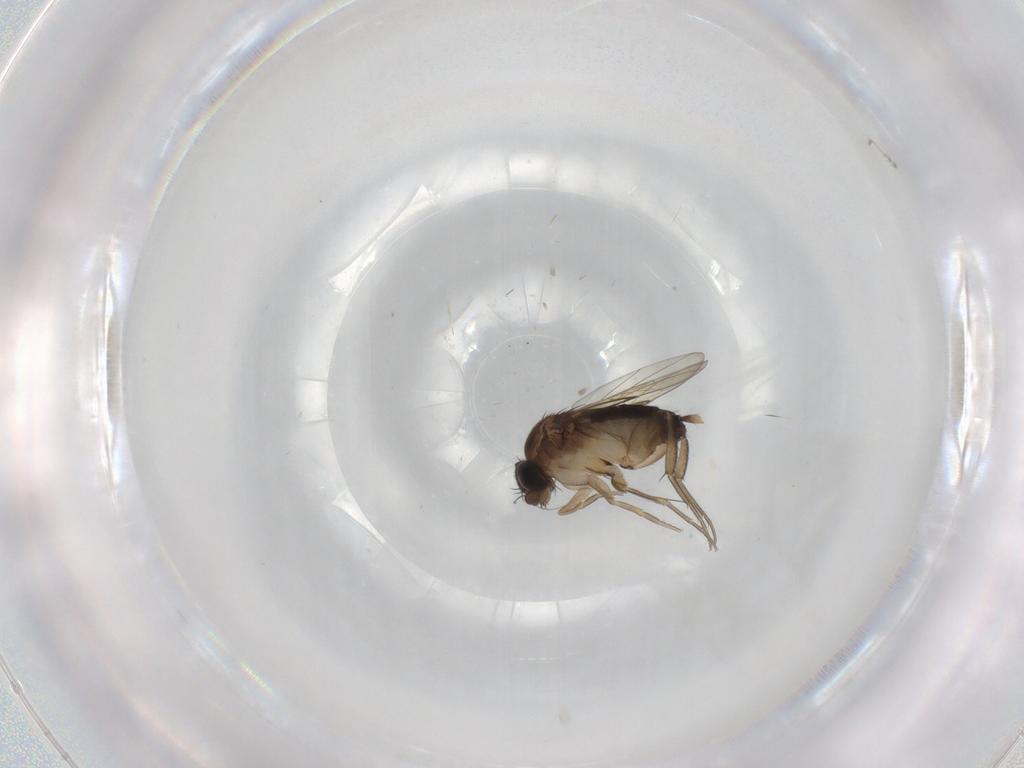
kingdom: Animalia
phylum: Arthropoda
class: Insecta
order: Diptera
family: Phoridae
